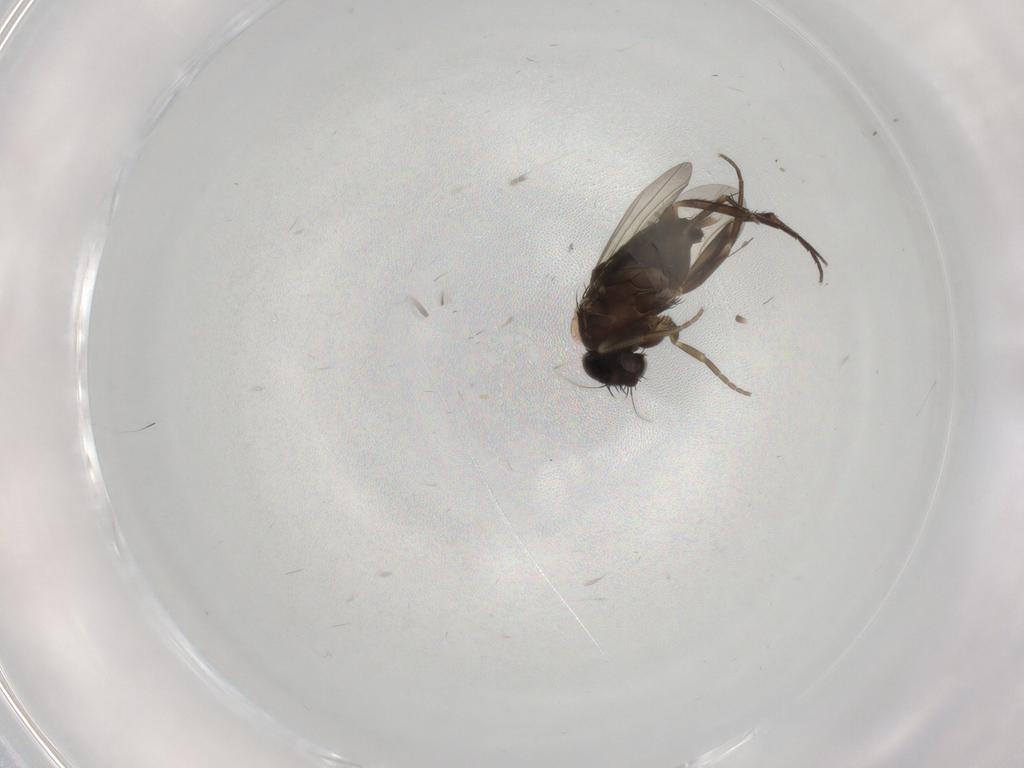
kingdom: Animalia
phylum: Arthropoda
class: Insecta
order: Diptera
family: Phoridae
